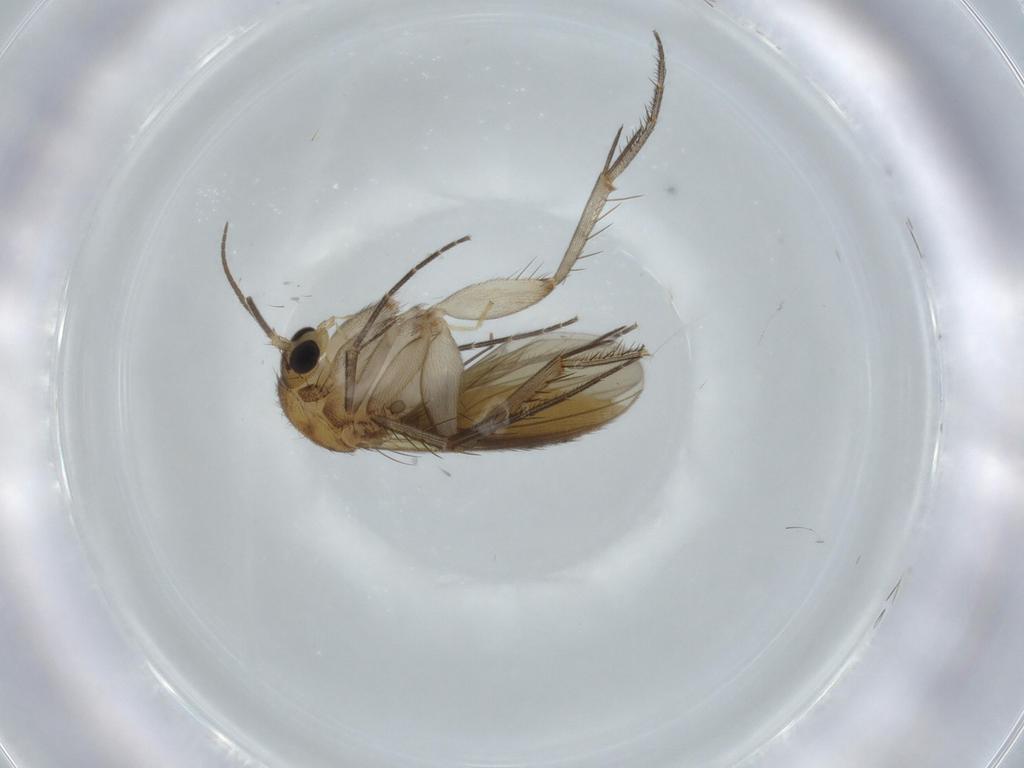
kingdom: Animalia
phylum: Arthropoda
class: Insecta
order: Diptera
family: Mycetophilidae
